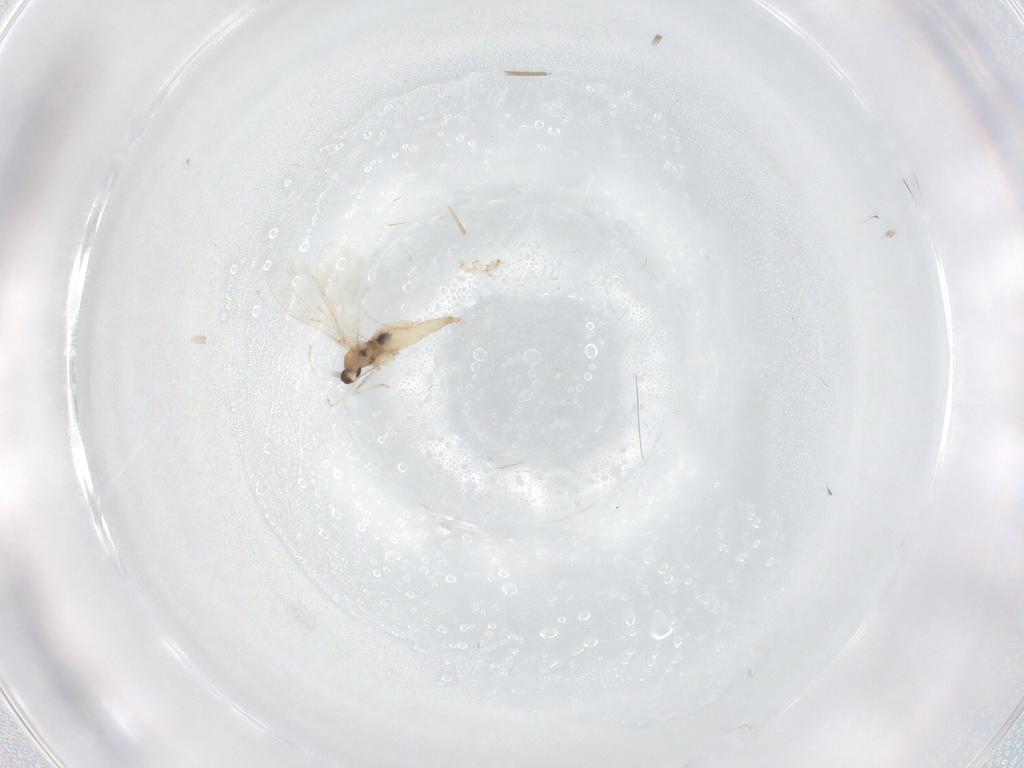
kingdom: Animalia
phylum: Arthropoda
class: Insecta
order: Diptera
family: Cecidomyiidae
